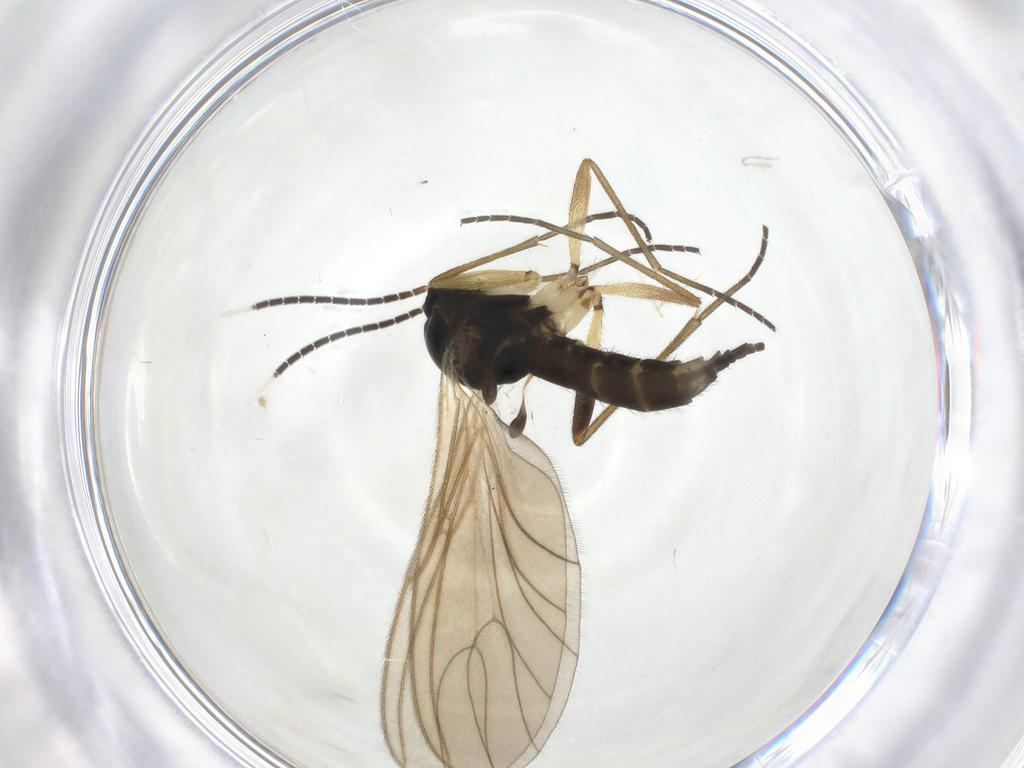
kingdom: Animalia
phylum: Arthropoda
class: Insecta
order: Diptera
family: Sciaridae
